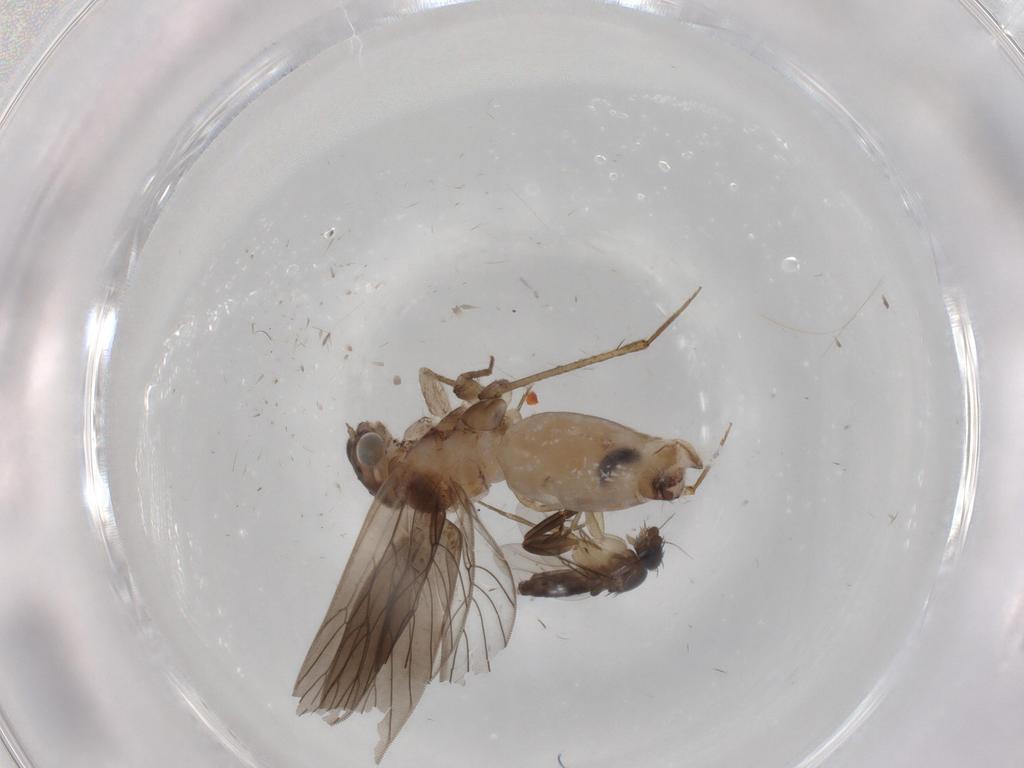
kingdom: Animalia
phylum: Arthropoda
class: Insecta
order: Psocodea
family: Lepidopsocidae
